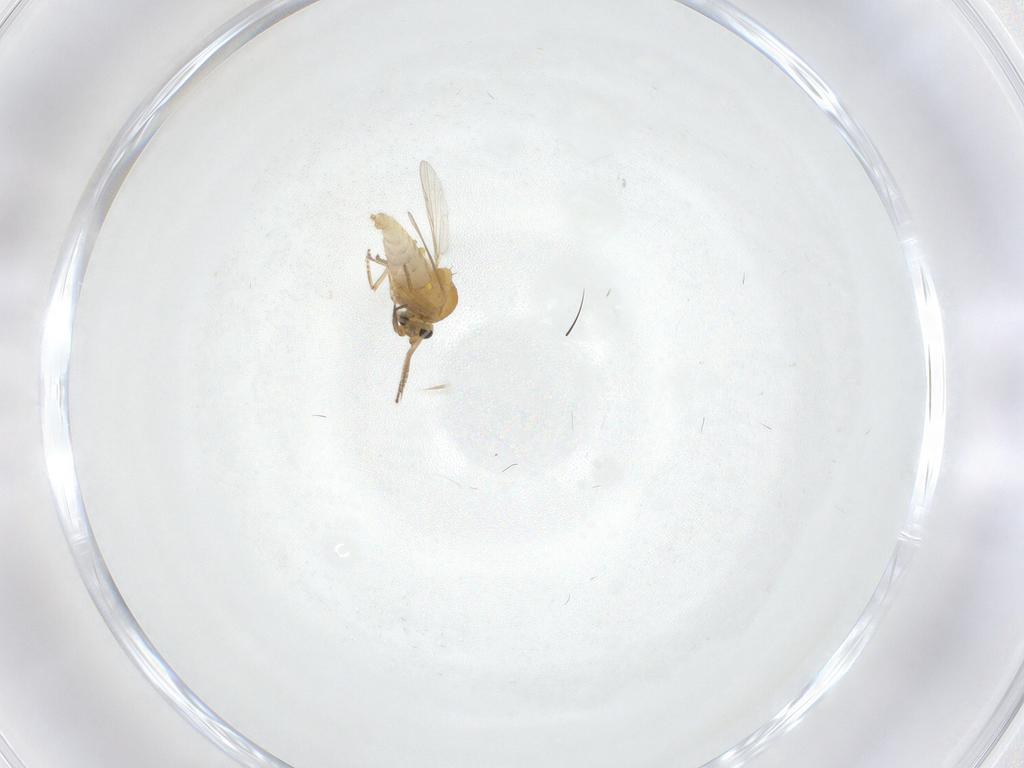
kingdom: Animalia
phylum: Arthropoda
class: Insecta
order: Diptera
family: Ceratopogonidae
